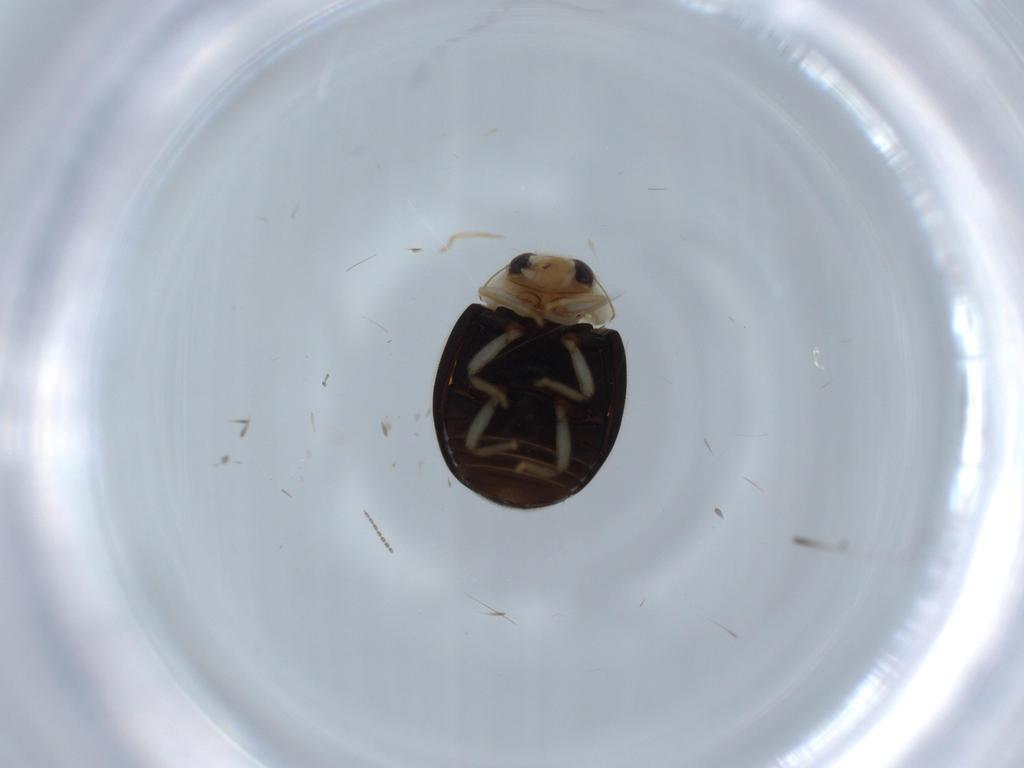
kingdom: Animalia
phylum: Arthropoda
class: Insecta
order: Coleoptera
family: Coccinellidae
